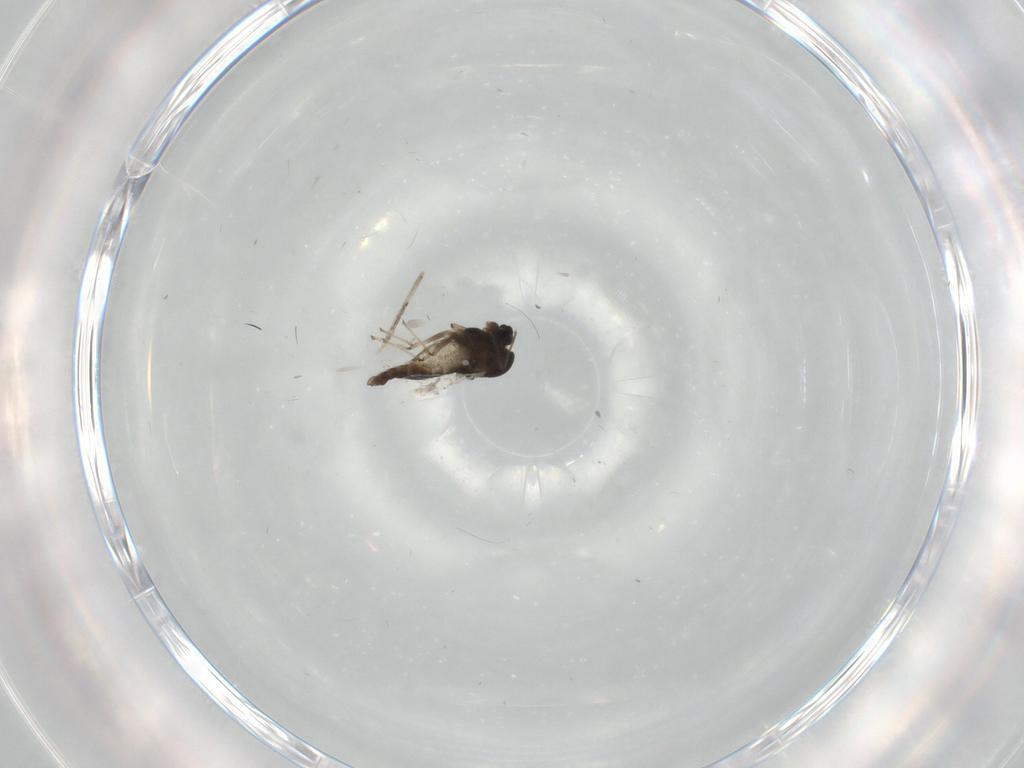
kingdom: Animalia
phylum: Arthropoda
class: Insecta
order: Diptera
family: Chironomidae
